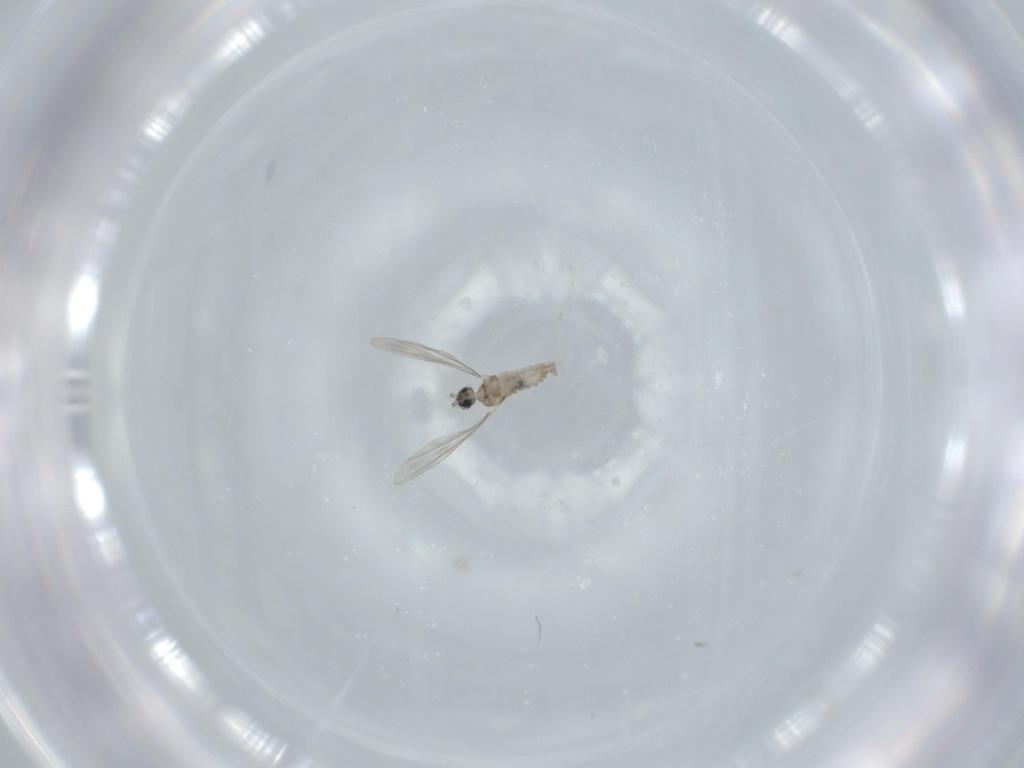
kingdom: Animalia
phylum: Arthropoda
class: Insecta
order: Diptera
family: Cecidomyiidae
